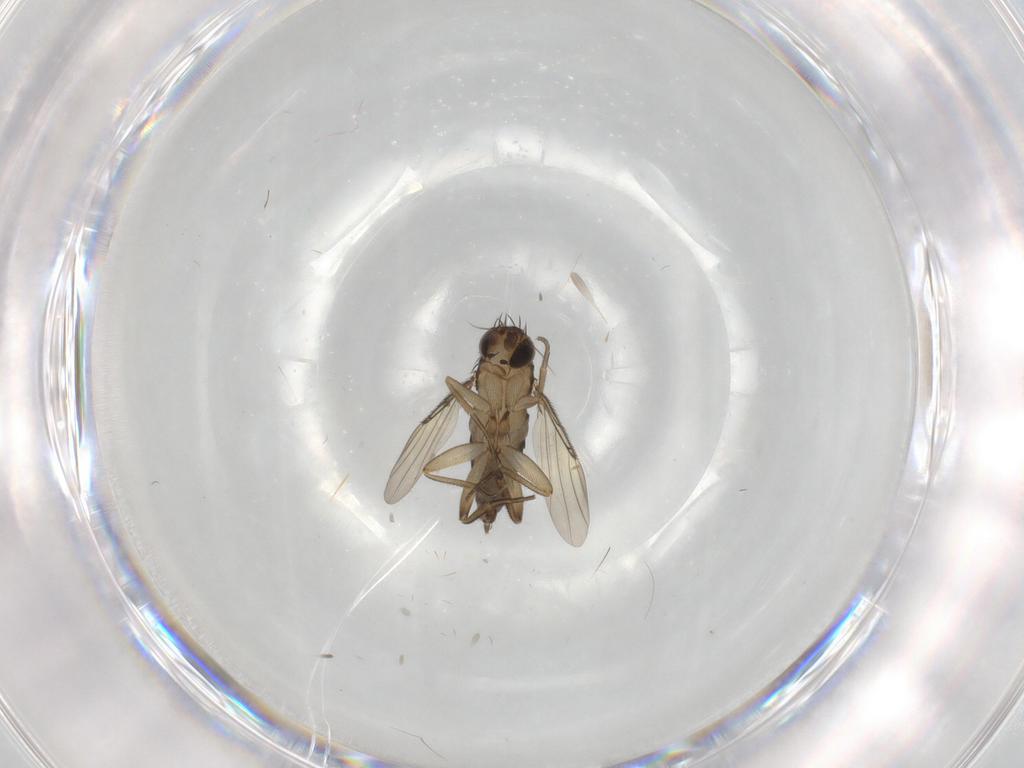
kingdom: Animalia
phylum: Arthropoda
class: Insecta
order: Diptera
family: Phoridae
